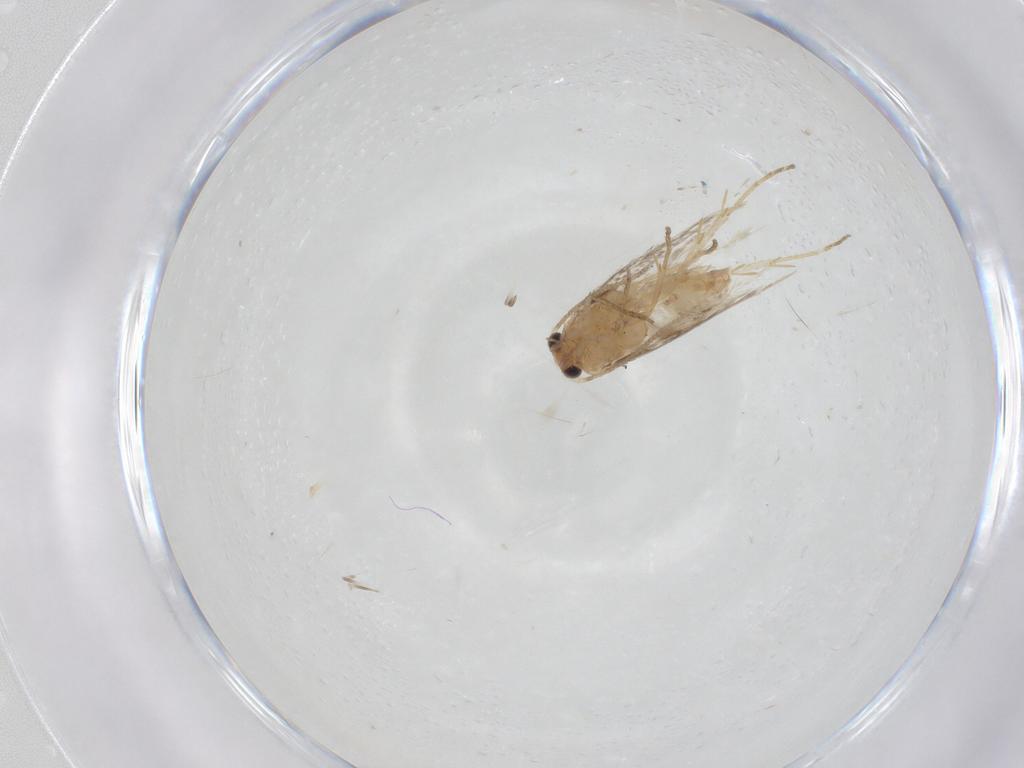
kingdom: Animalia
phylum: Arthropoda
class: Insecta
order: Lepidoptera
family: Nepticulidae
